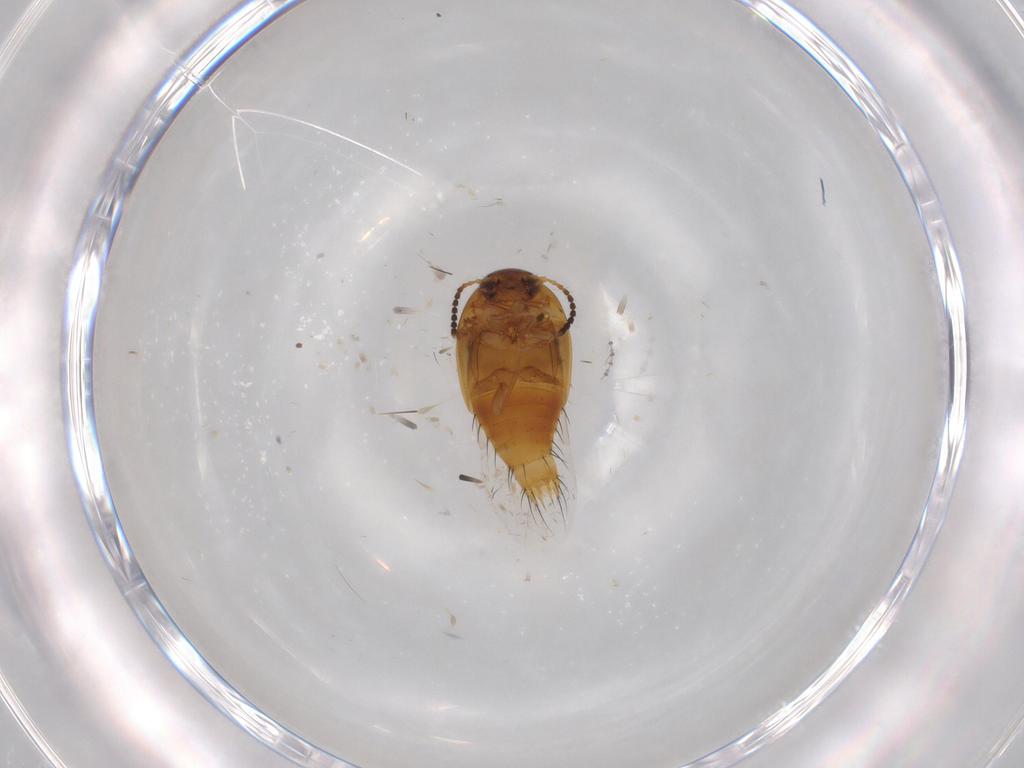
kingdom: Animalia
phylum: Arthropoda
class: Insecta
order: Coleoptera
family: Staphylinidae
